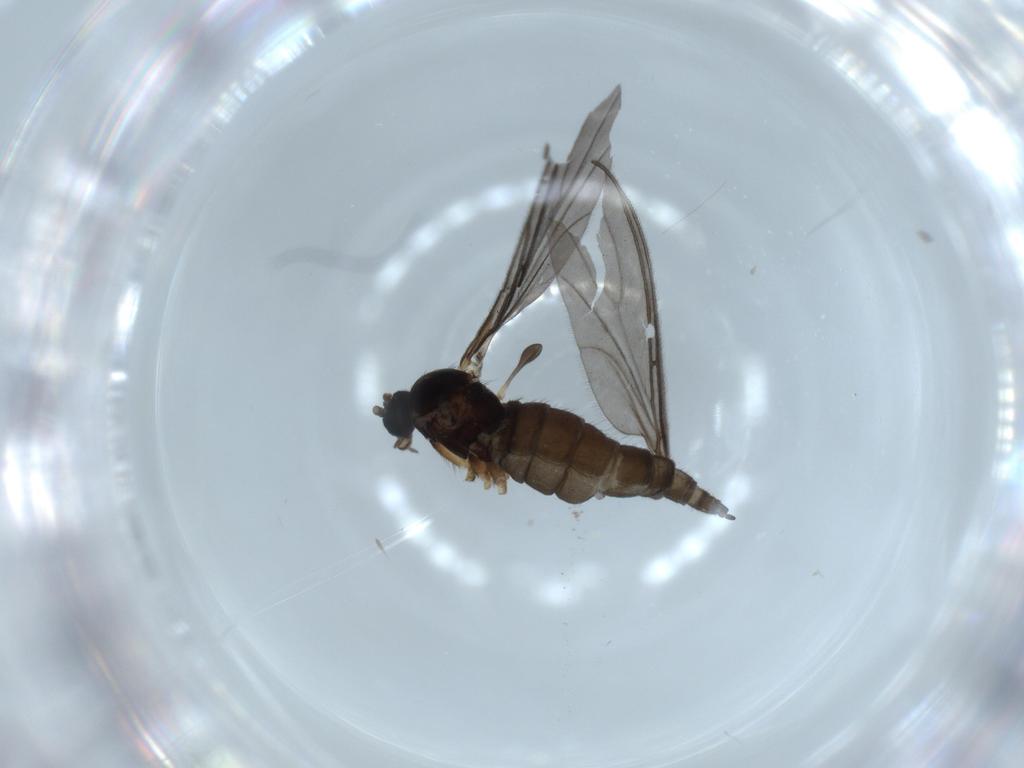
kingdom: Animalia
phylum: Arthropoda
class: Insecta
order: Diptera
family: Sciaridae
